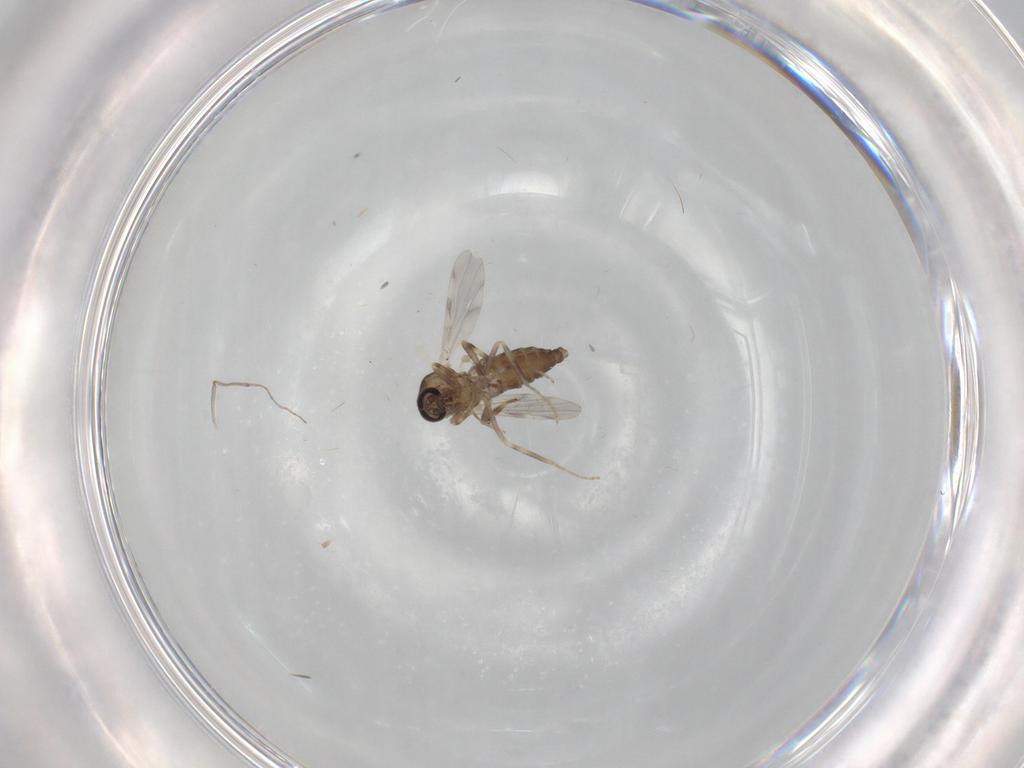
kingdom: Animalia
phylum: Arthropoda
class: Insecta
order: Diptera
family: Ceratopogonidae
